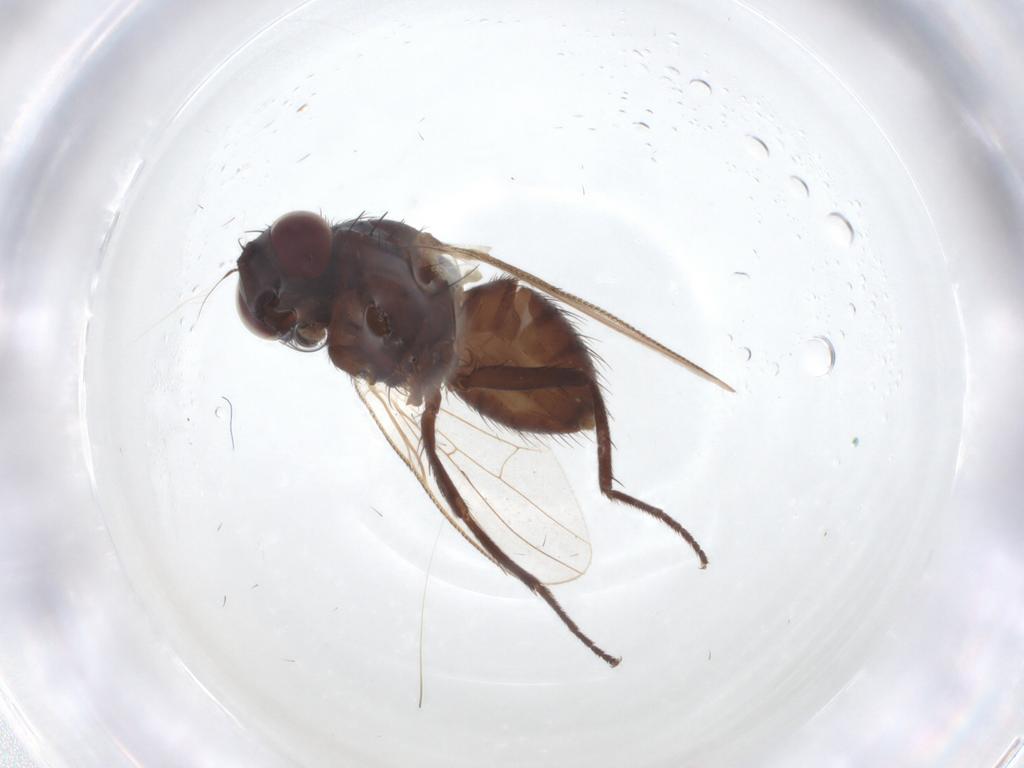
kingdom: Animalia
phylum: Arthropoda
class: Insecta
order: Diptera
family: Muscidae
